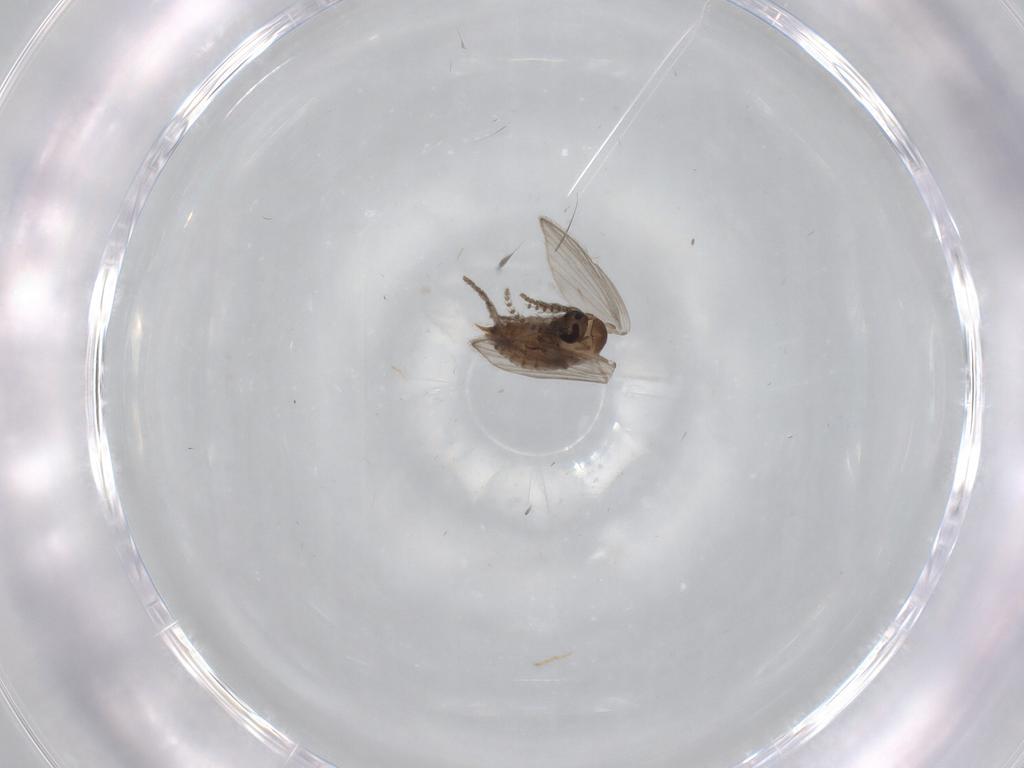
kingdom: Animalia
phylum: Arthropoda
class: Insecta
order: Diptera
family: Psychodidae
